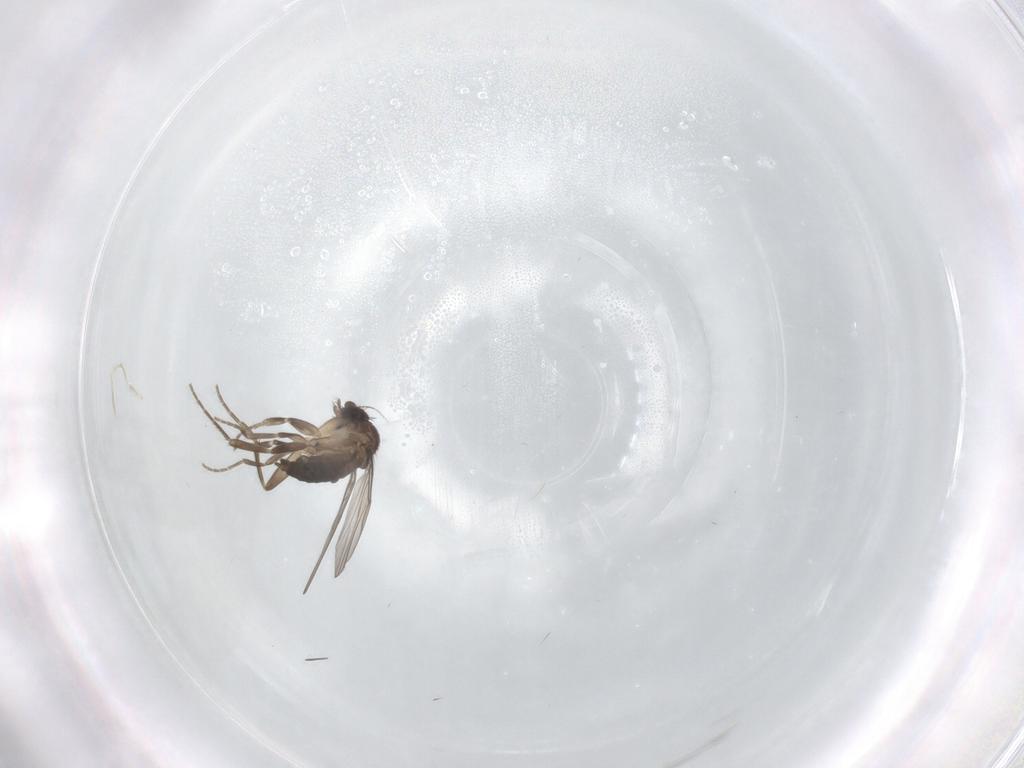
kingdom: Animalia
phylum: Arthropoda
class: Insecta
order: Diptera
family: Phoridae
